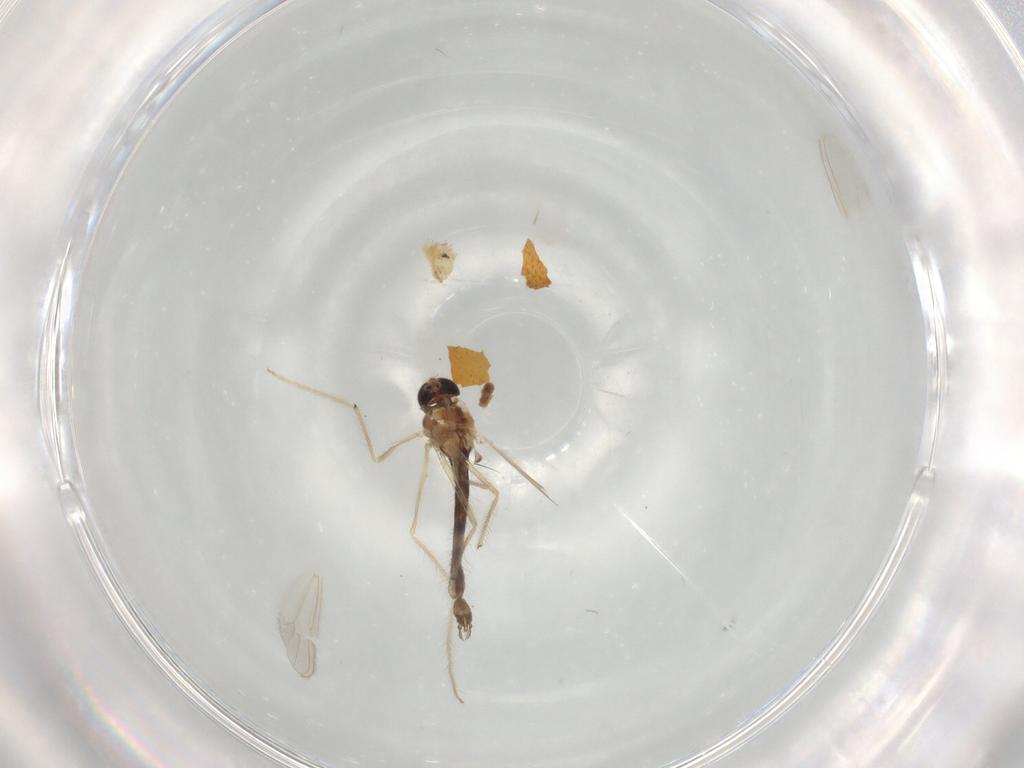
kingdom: Animalia
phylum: Arthropoda
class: Insecta
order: Diptera
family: Chironomidae
